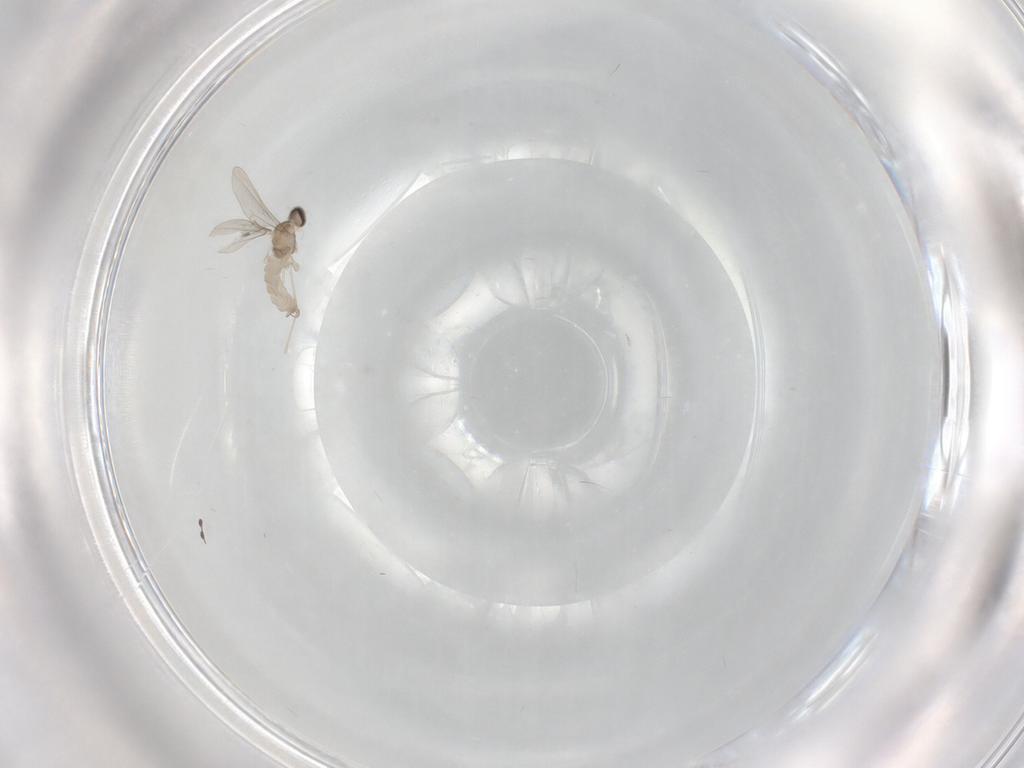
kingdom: Animalia
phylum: Arthropoda
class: Insecta
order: Diptera
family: Cecidomyiidae
